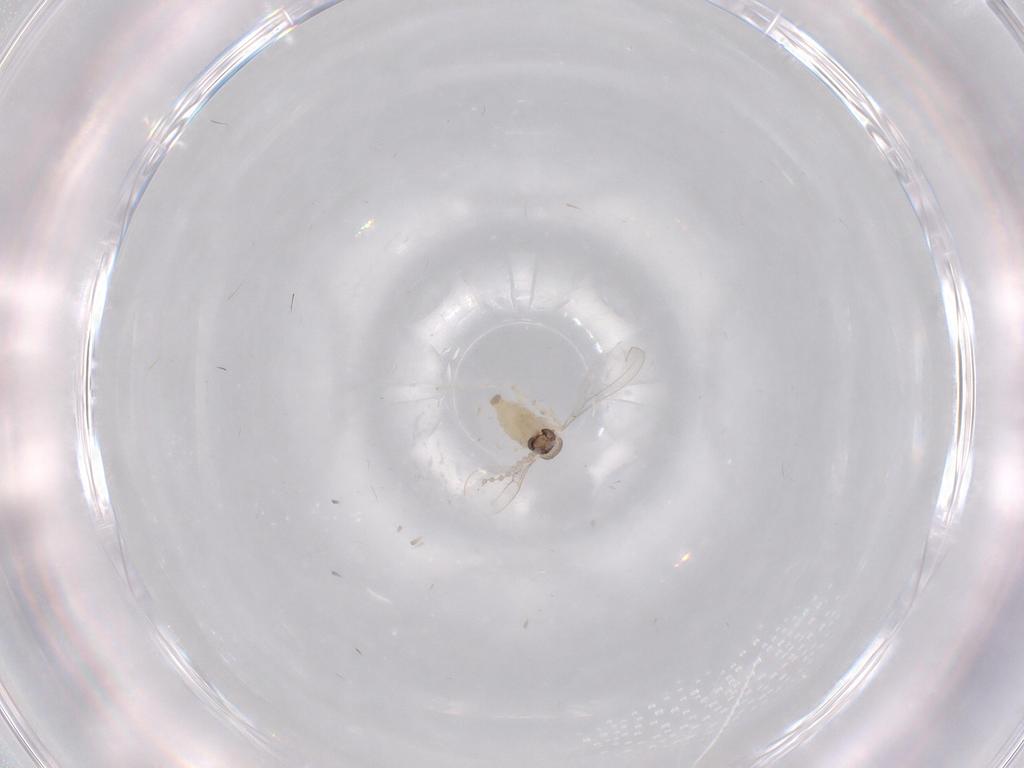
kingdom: Animalia
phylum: Arthropoda
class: Insecta
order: Diptera
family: Cecidomyiidae
